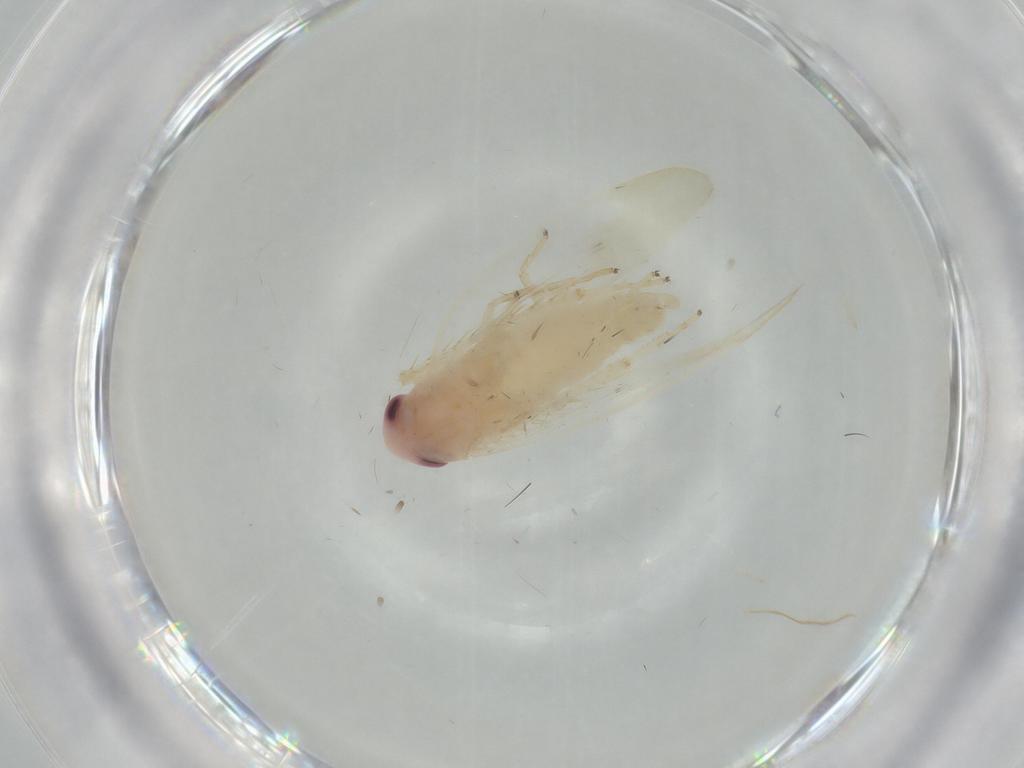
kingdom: Animalia
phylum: Arthropoda
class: Insecta
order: Hemiptera
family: Cicadellidae
